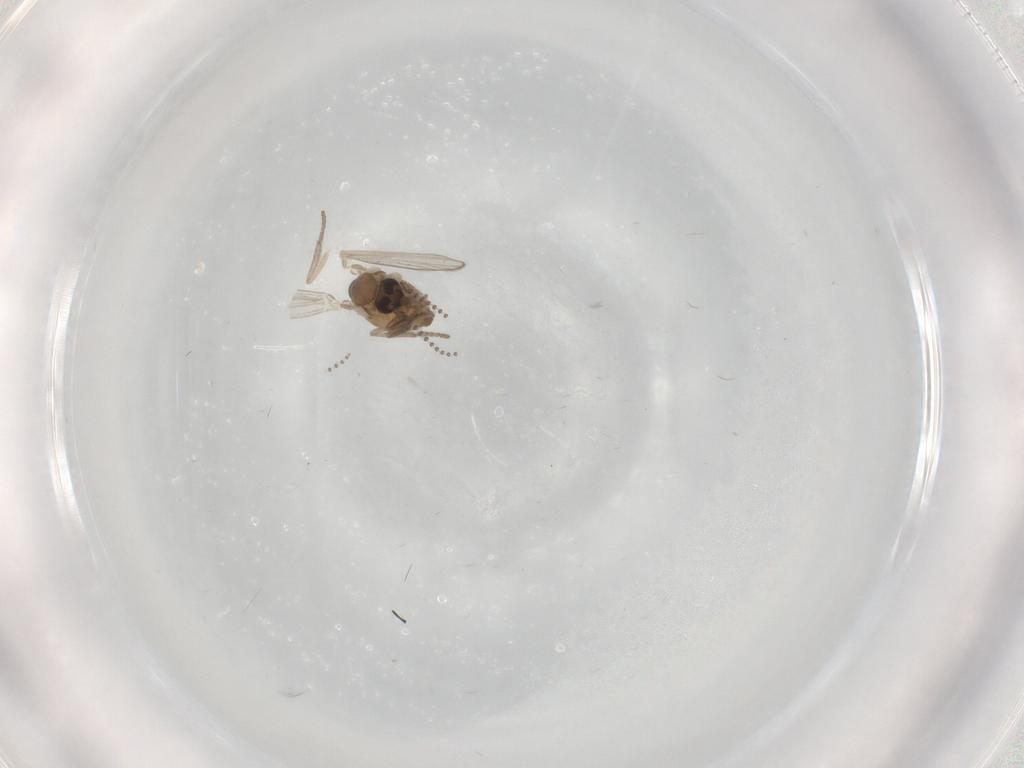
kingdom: Animalia
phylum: Arthropoda
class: Insecta
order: Diptera
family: Psychodidae
